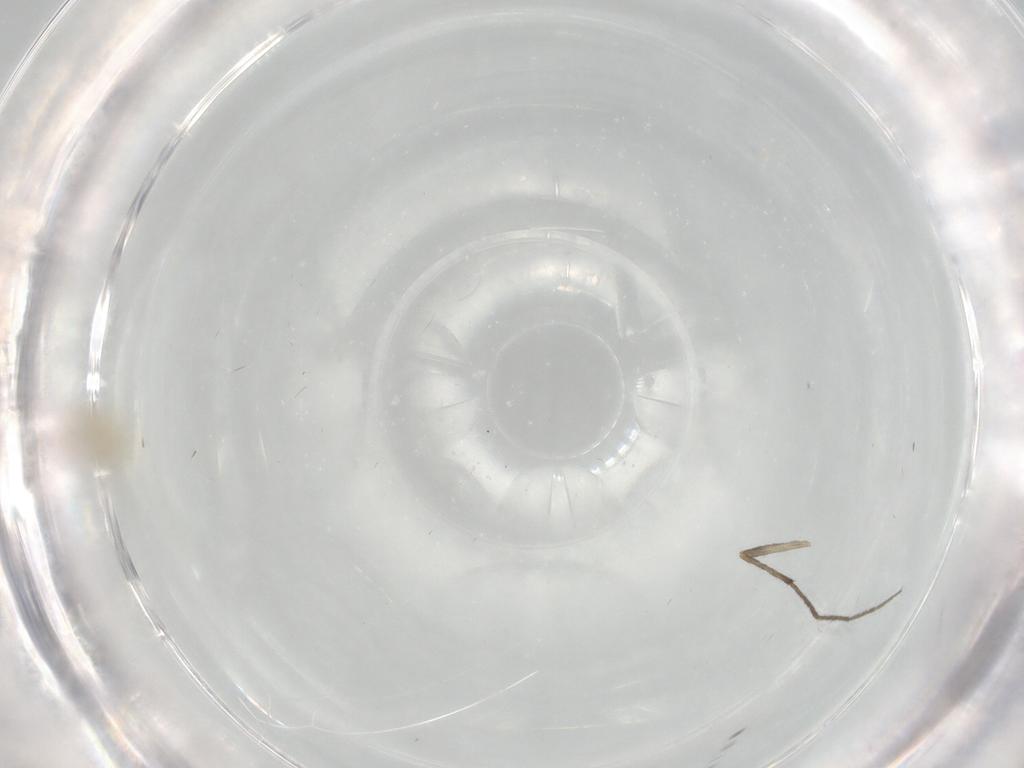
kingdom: Animalia
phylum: Arthropoda
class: Insecta
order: Diptera
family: Chironomidae
